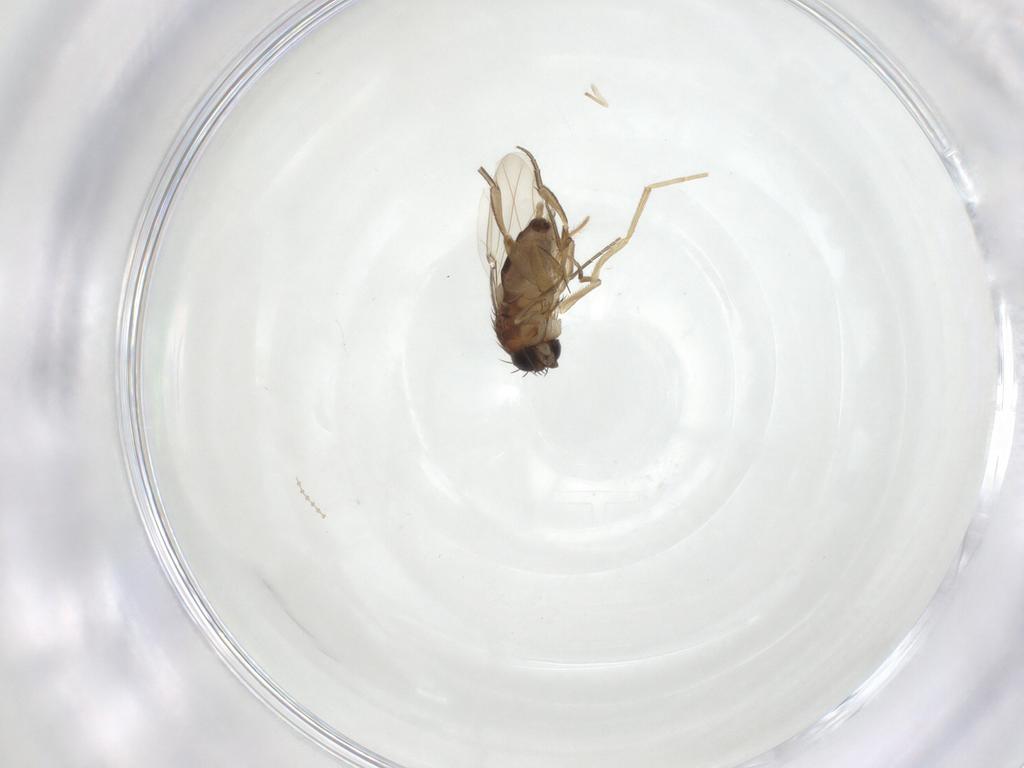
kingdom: Animalia
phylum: Arthropoda
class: Insecta
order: Diptera
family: Phoridae
